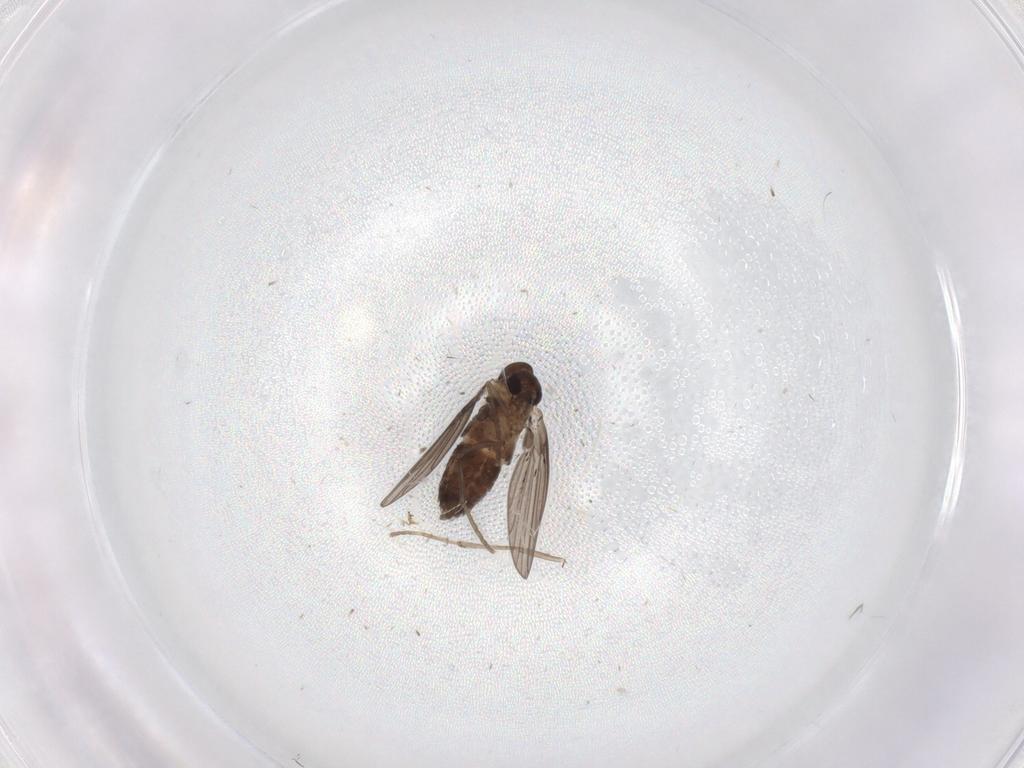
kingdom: Animalia
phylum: Arthropoda
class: Insecta
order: Diptera
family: Phoridae
